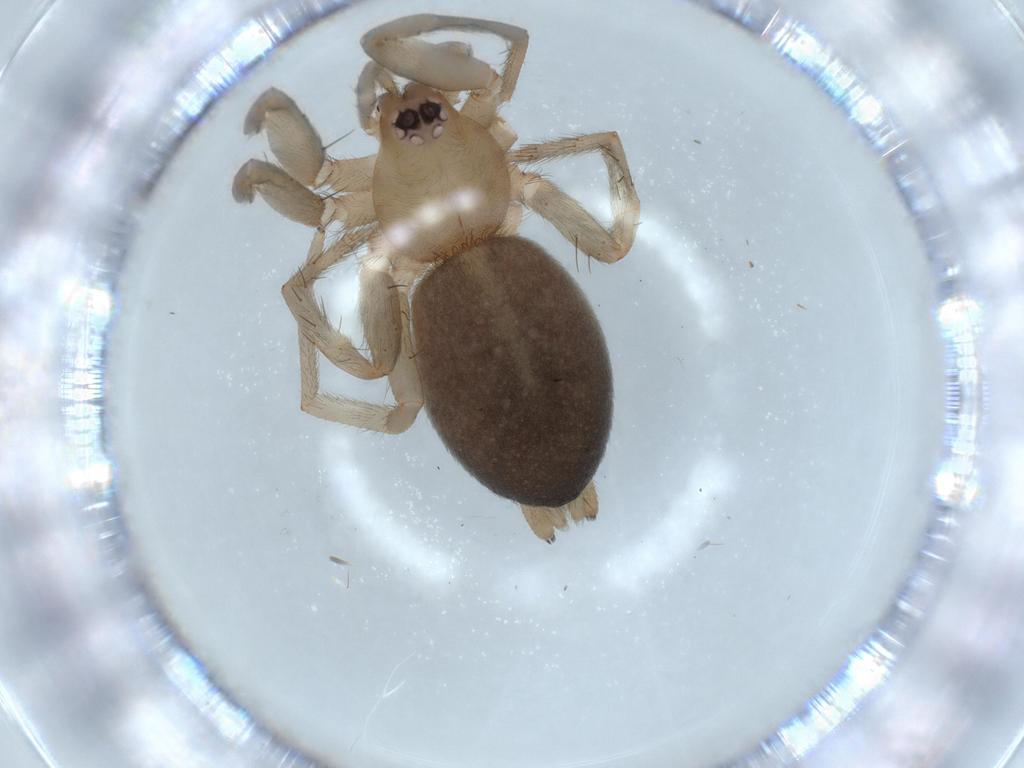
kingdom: Animalia
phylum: Arthropoda
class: Arachnida
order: Araneae
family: Gnaphosidae
